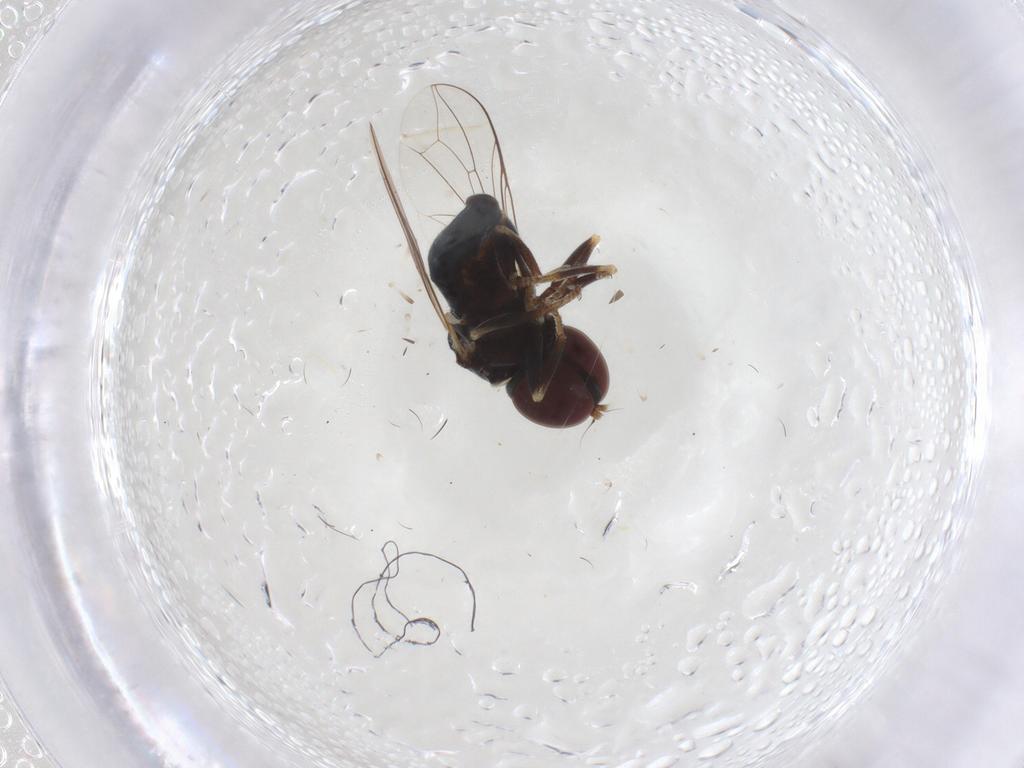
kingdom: Animalia
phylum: Arthropoda
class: Insecta
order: Diptera
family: Pipunculidae
